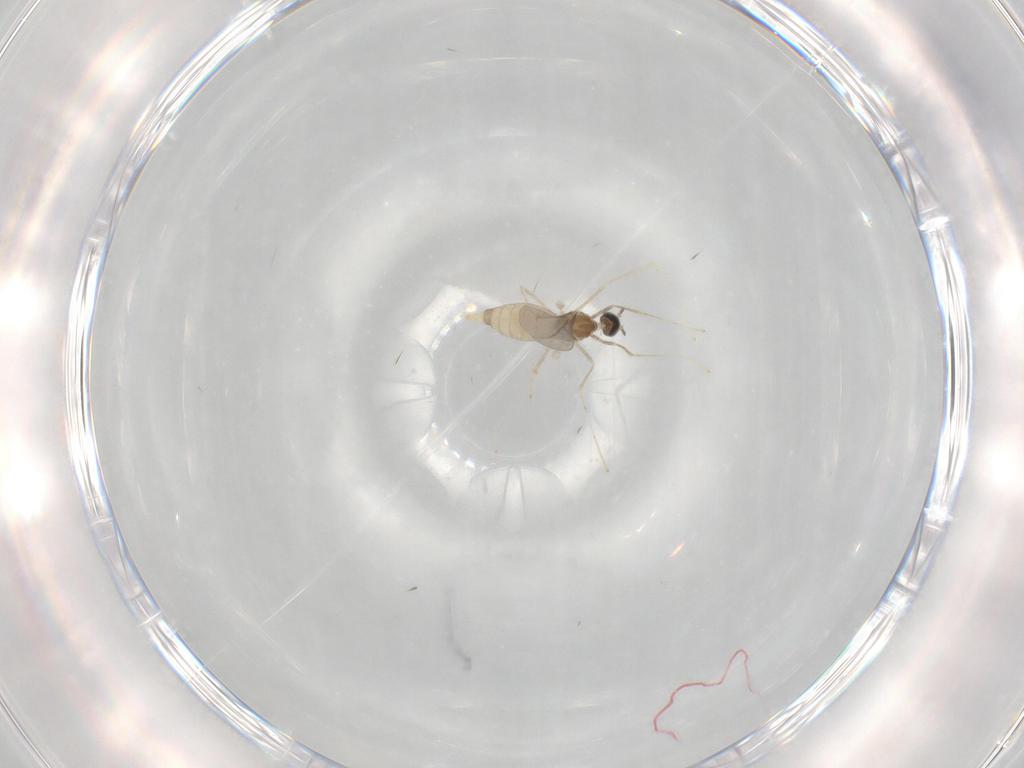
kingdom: Animalia
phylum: Arthropoda
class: Insecta
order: Diptera
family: Cecidomyiidae
